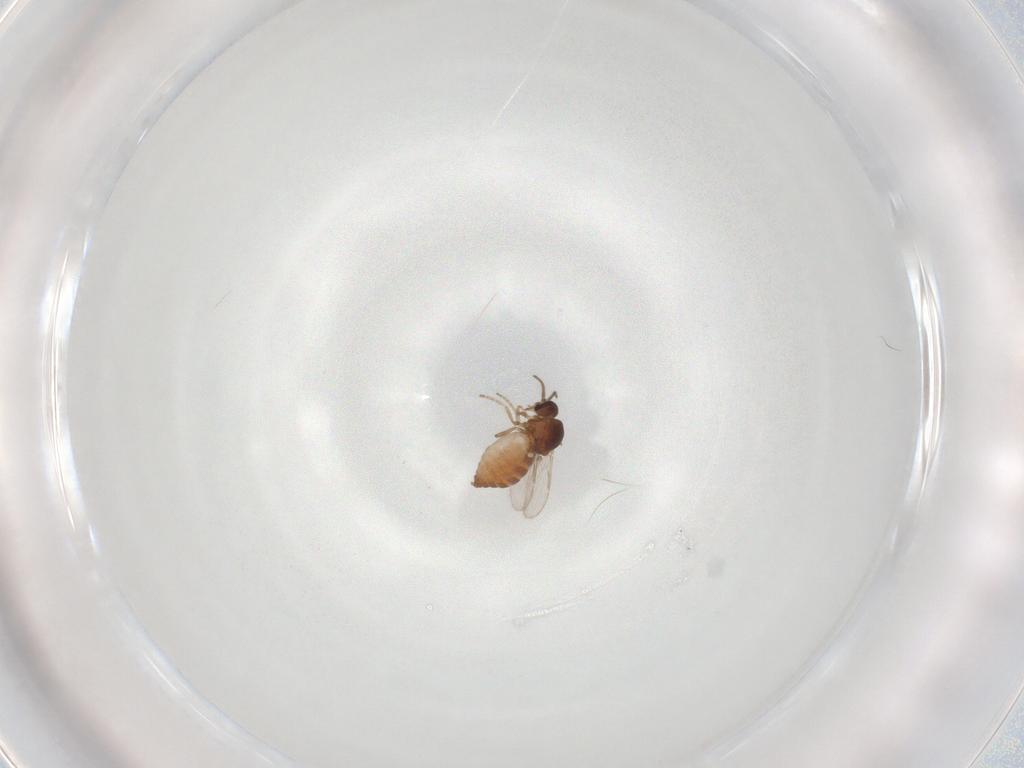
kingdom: Animalia
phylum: Arthropoda
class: Insecta
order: Diptera
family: Ceratopogonidae
